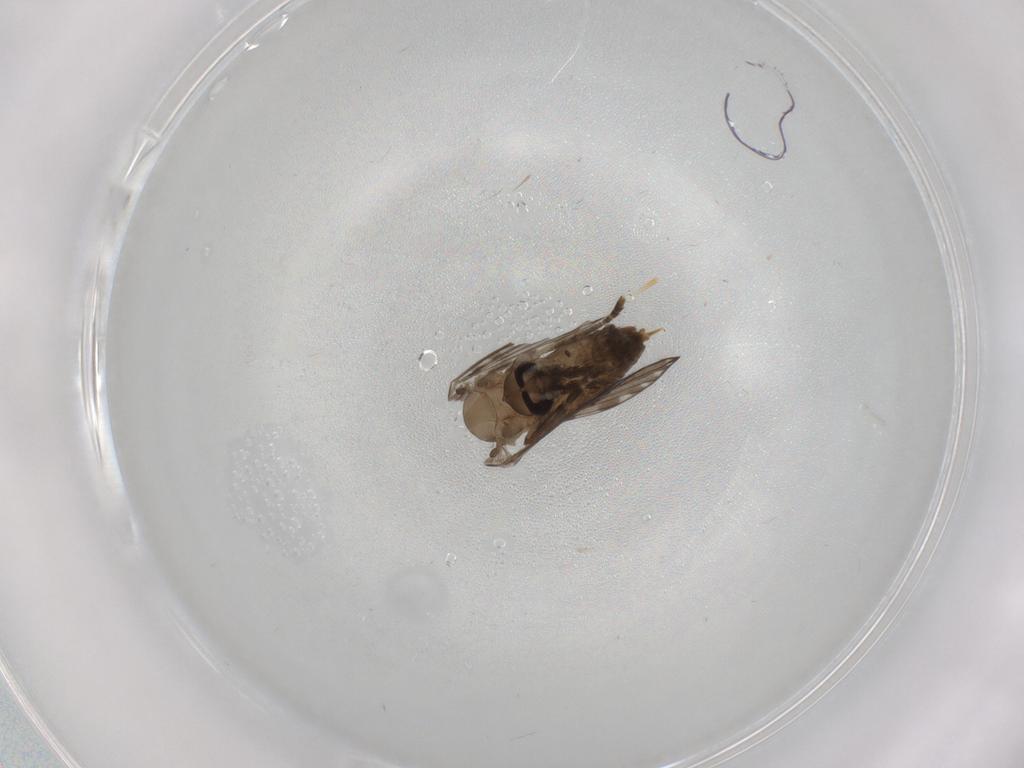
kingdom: Animalia
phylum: Arthropoda
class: Insecta
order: Diptera
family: Psychodidae
